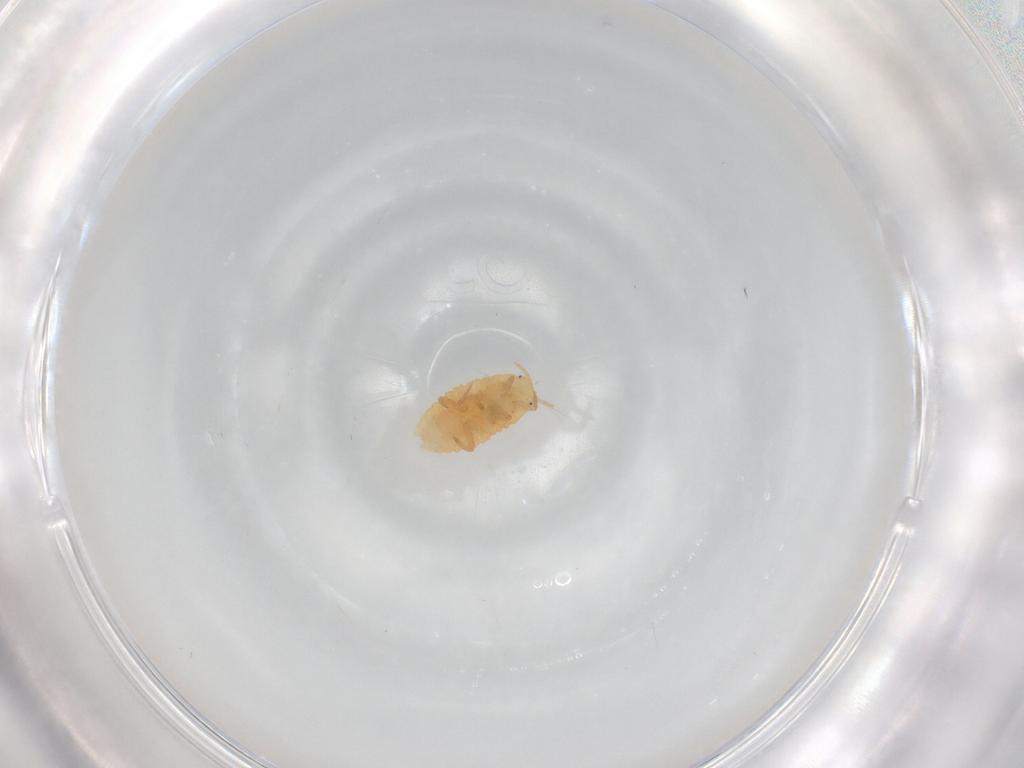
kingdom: Animalia
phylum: Arthropoda
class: Insecta
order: Hemiptera
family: Pseudococcidae
